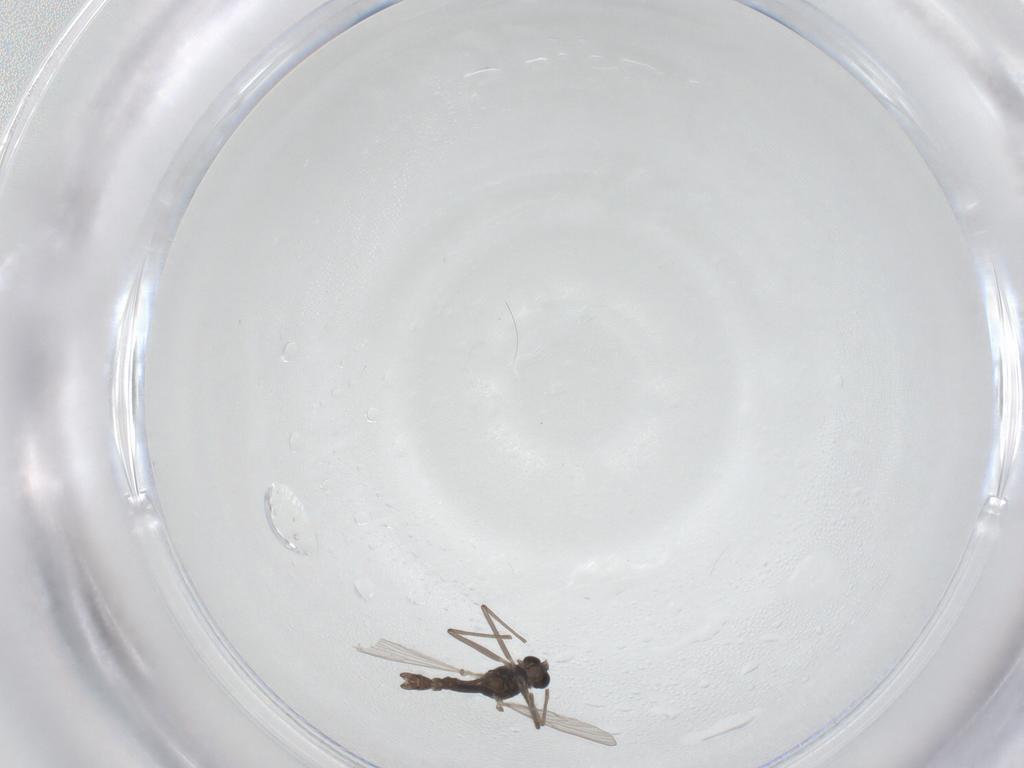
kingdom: Animalia
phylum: Arthropoda
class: Insecta
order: Diptera
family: Chironomidae
